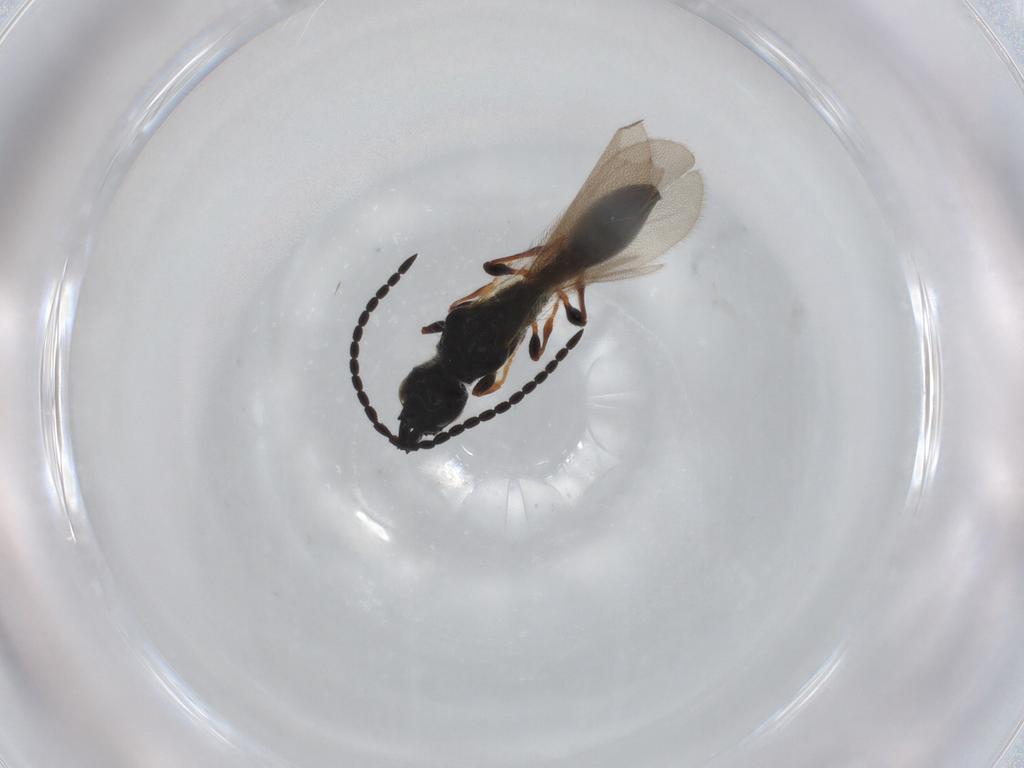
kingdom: Animalia
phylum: Arthropoda
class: Insecta
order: Hymenoptera
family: Diapriidae
